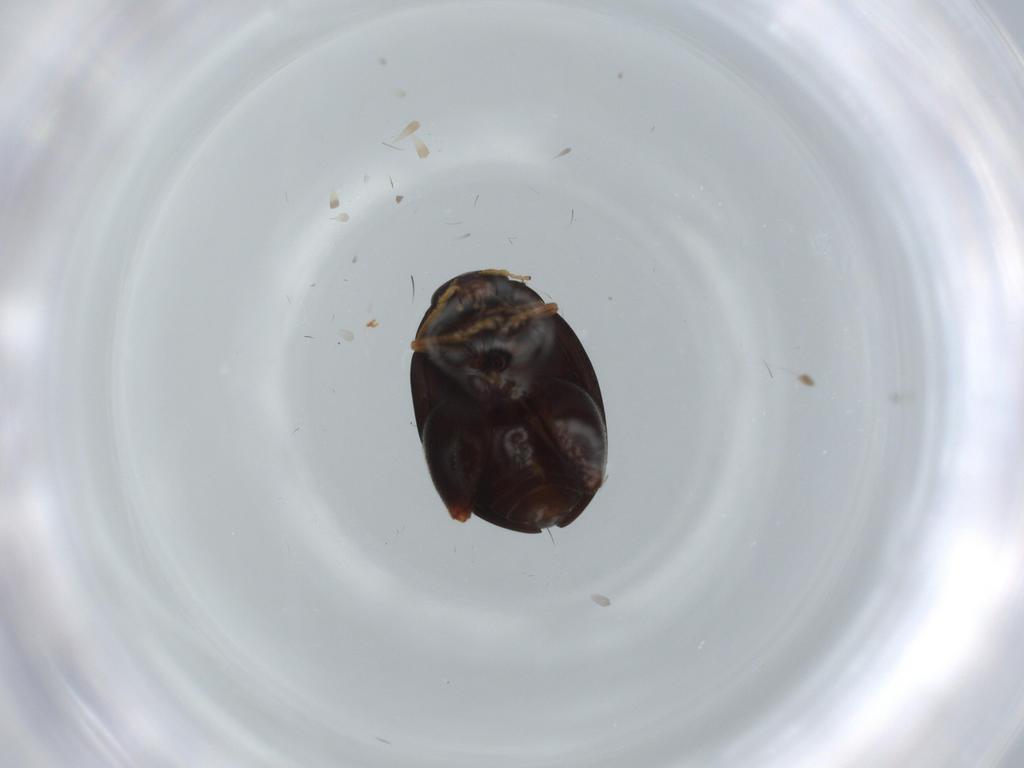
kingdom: Animalia
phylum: Arthropoda
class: Insecta
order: Coleoptera
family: Chrysomelidae
